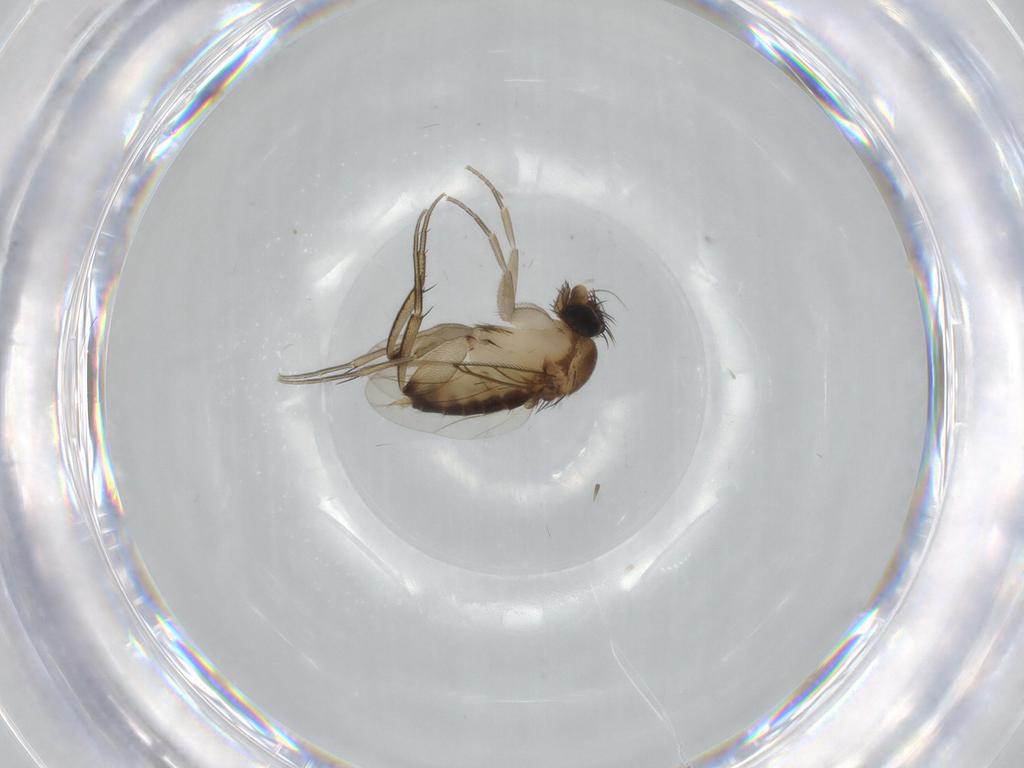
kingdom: Animalia
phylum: Arthropoda
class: Insecta
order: Diptera
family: Phoridae
